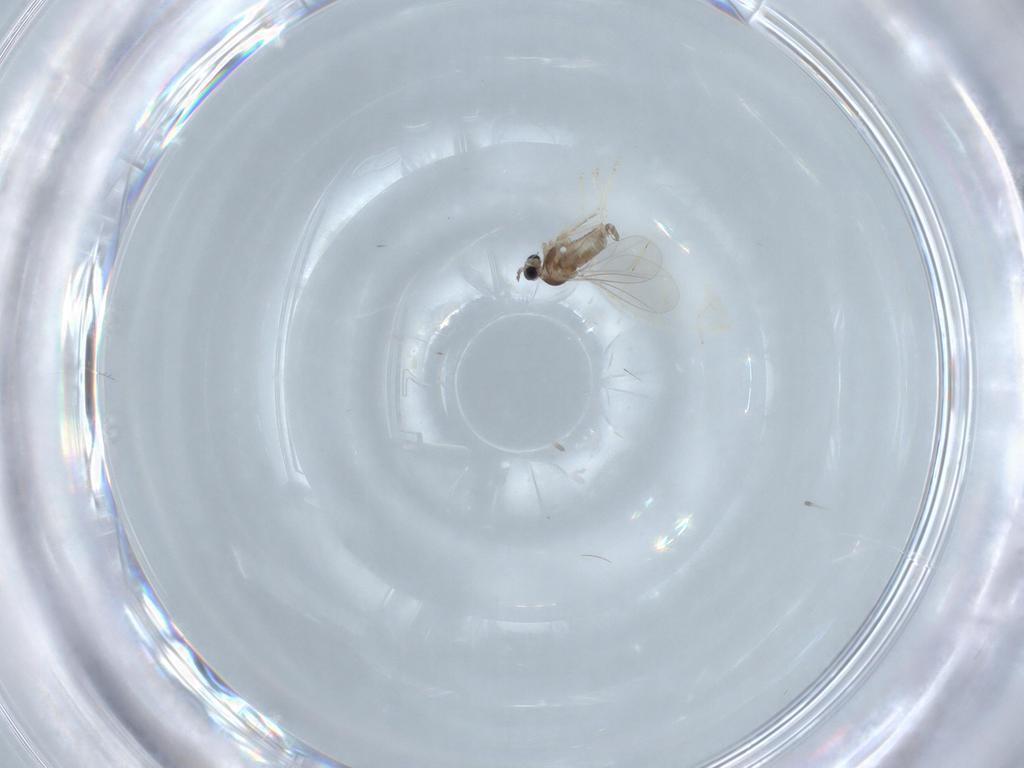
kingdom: Animalia
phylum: Arthropoda
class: Insecta
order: Diptera
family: Cecidomyiidae
